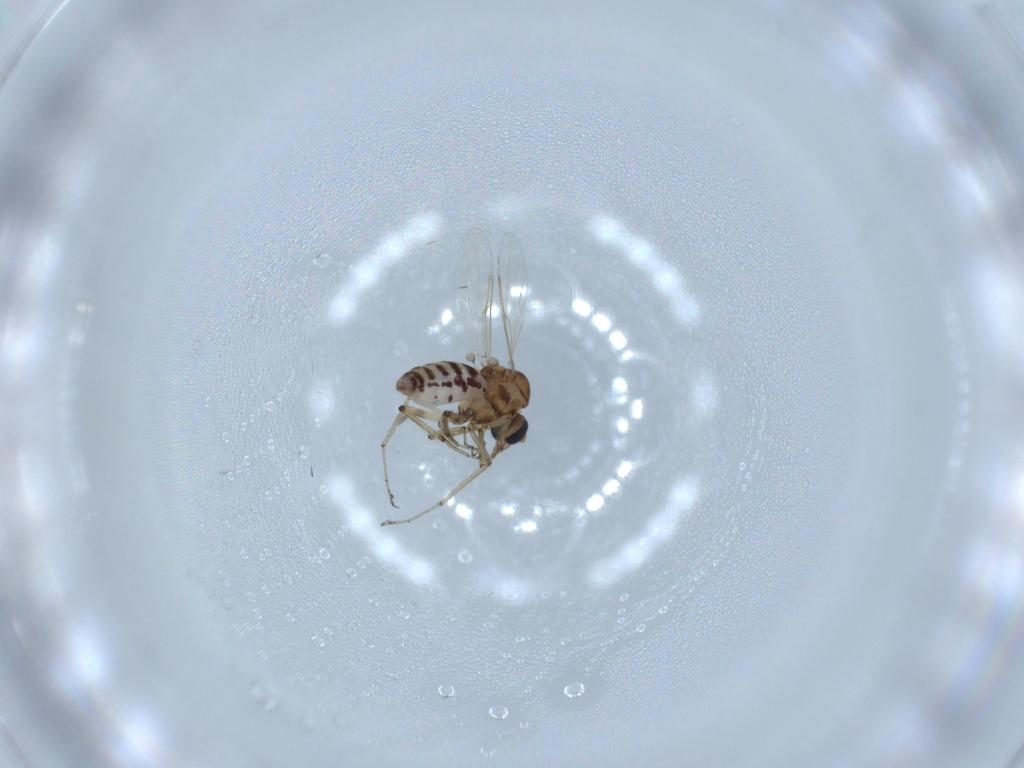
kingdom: Animalia
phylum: Arthropoda
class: Insecta
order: Diptera
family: Ceratopogonidae
